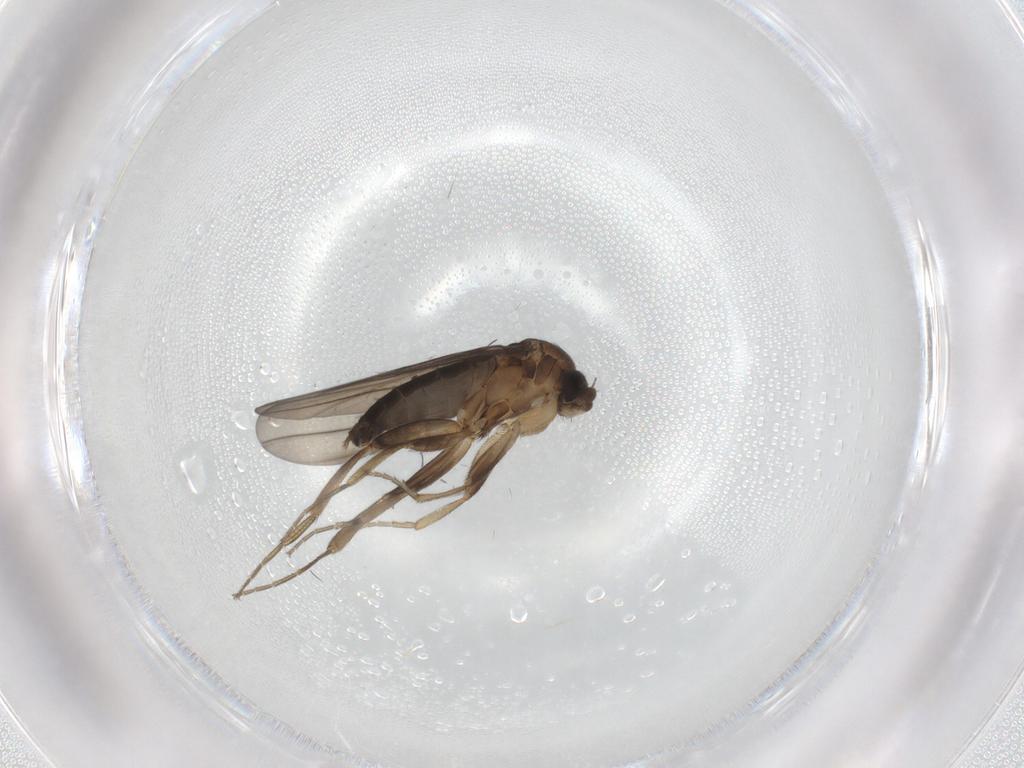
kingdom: Animalia
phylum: Arthropoda
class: Insecta
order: Diptera
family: Phoridae
